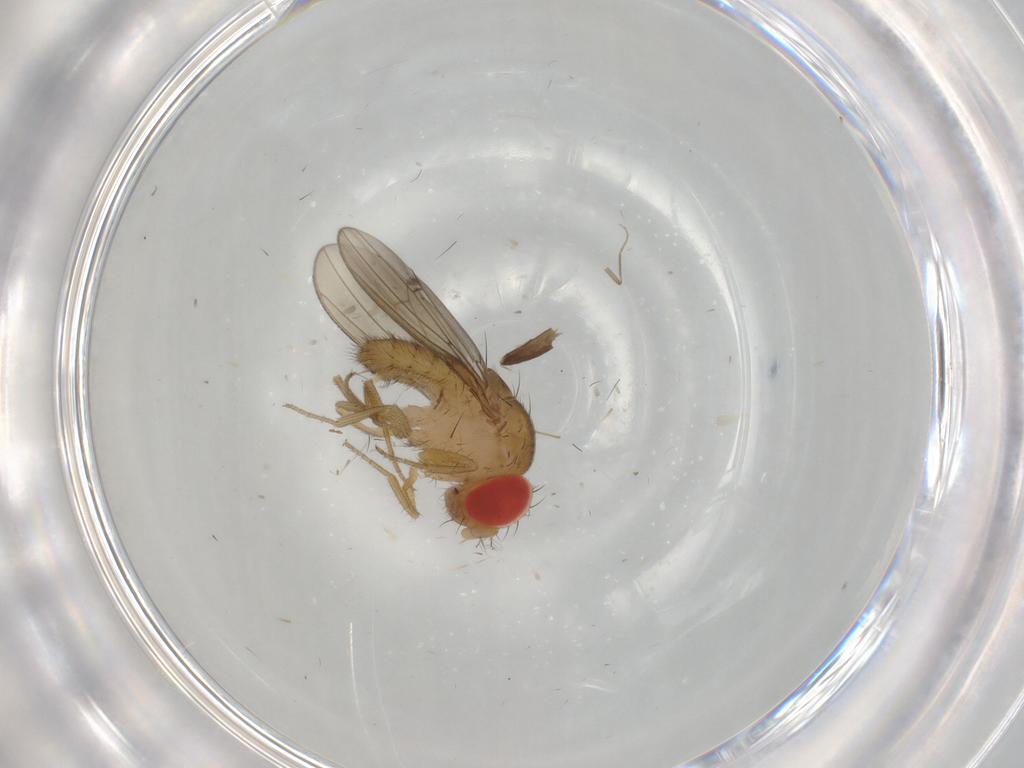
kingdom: Animalia
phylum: Arthropoda
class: Insecta
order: Diptera
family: Drosophilidae
